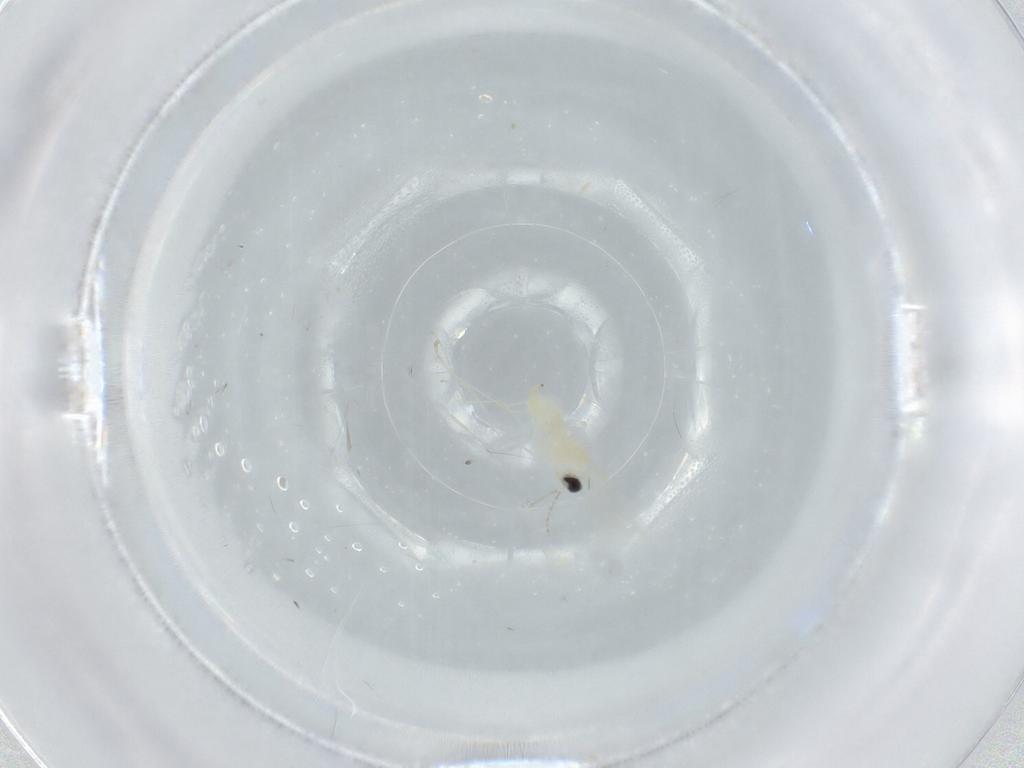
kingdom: Animalia
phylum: Arthropoda
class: Insecta
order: Diptera
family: Cecidomyiidae
